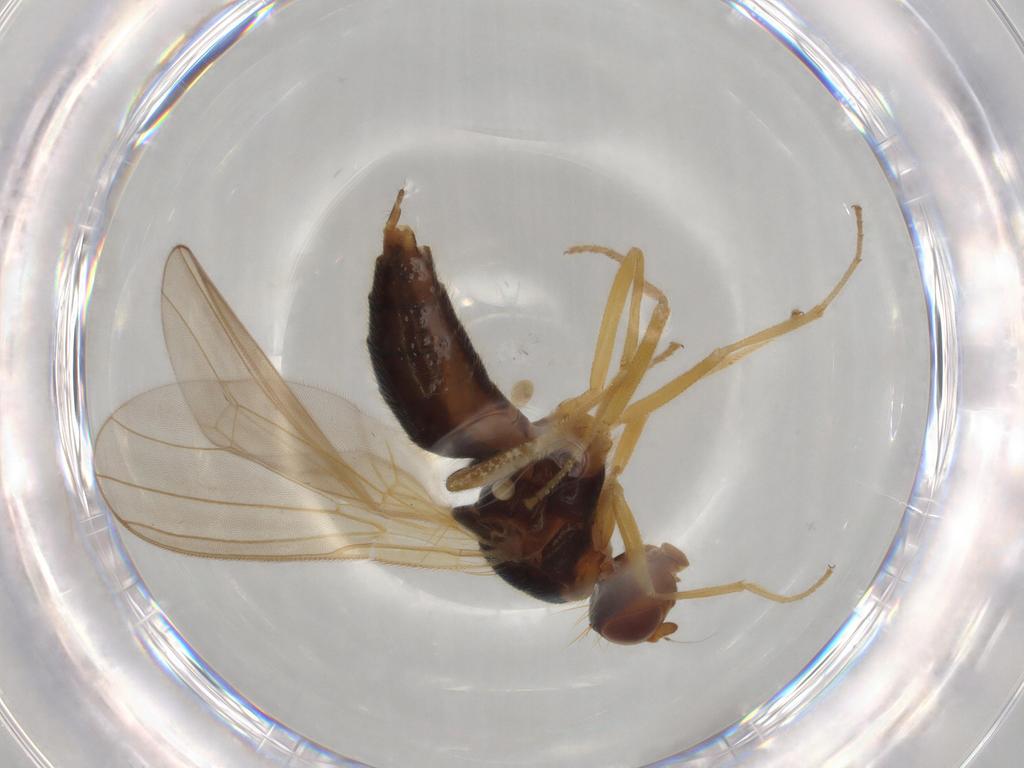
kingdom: Animalia
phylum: Arthropoda
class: Insecta
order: Diptera
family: Psilidae
